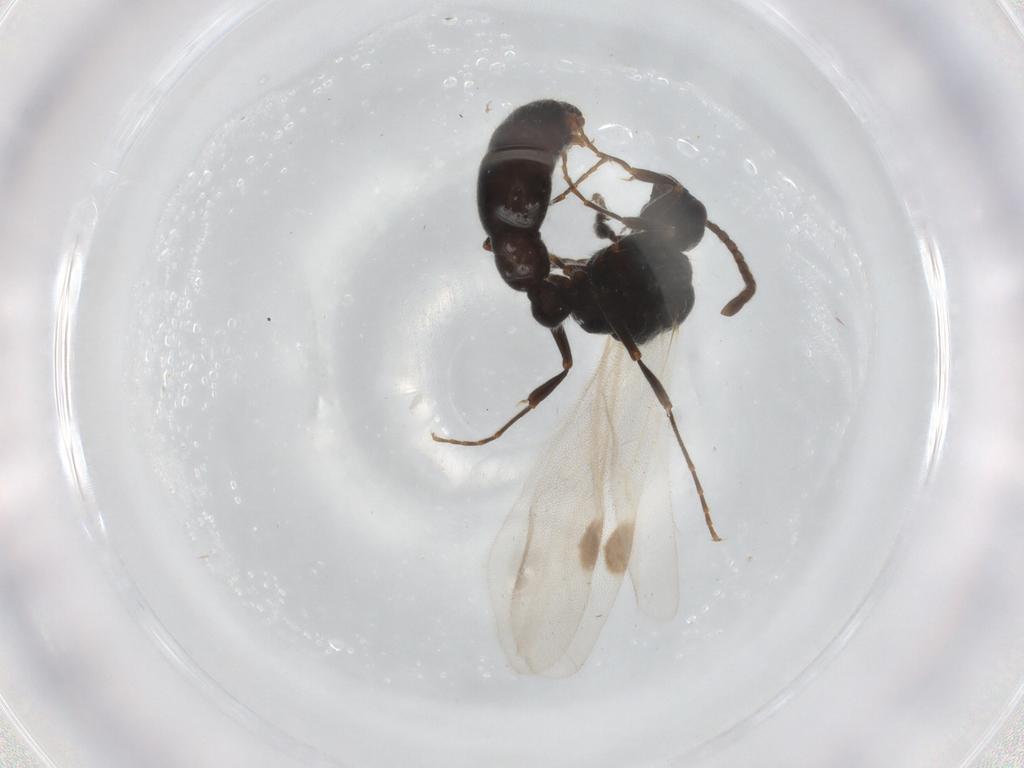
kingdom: Animalia
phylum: Arthropoda
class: Insecta
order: Hymenoptera
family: Formicidae
